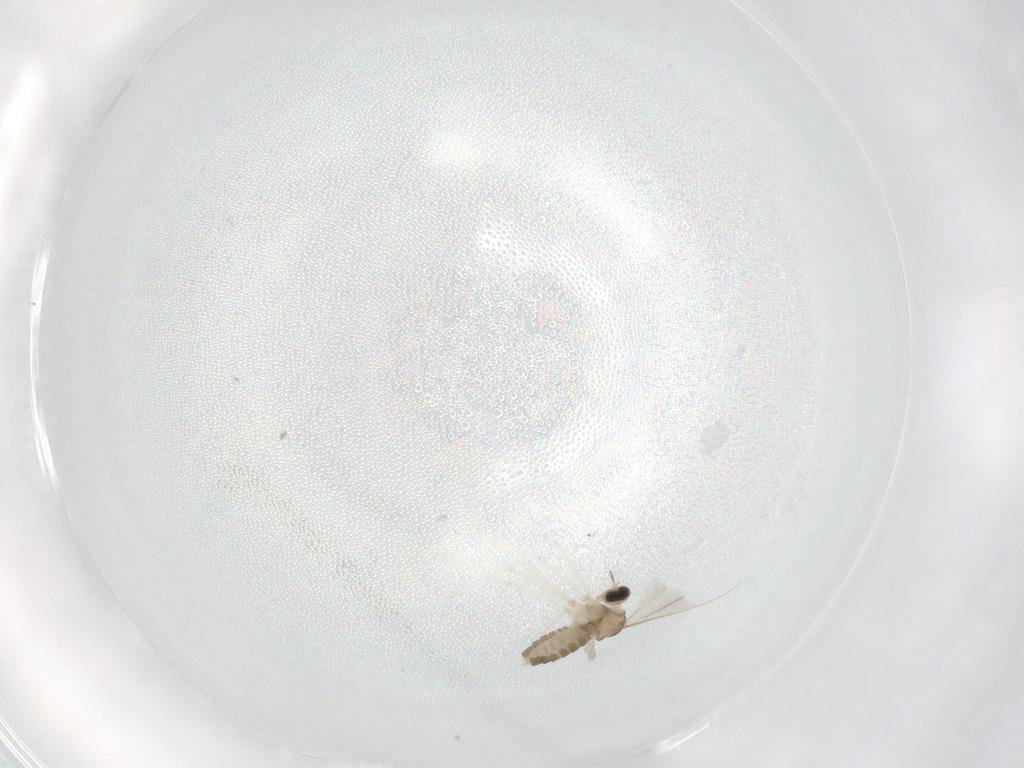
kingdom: Animalia
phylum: Arthropoda
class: Insecta
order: Diptera
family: Cecidomyiidae
